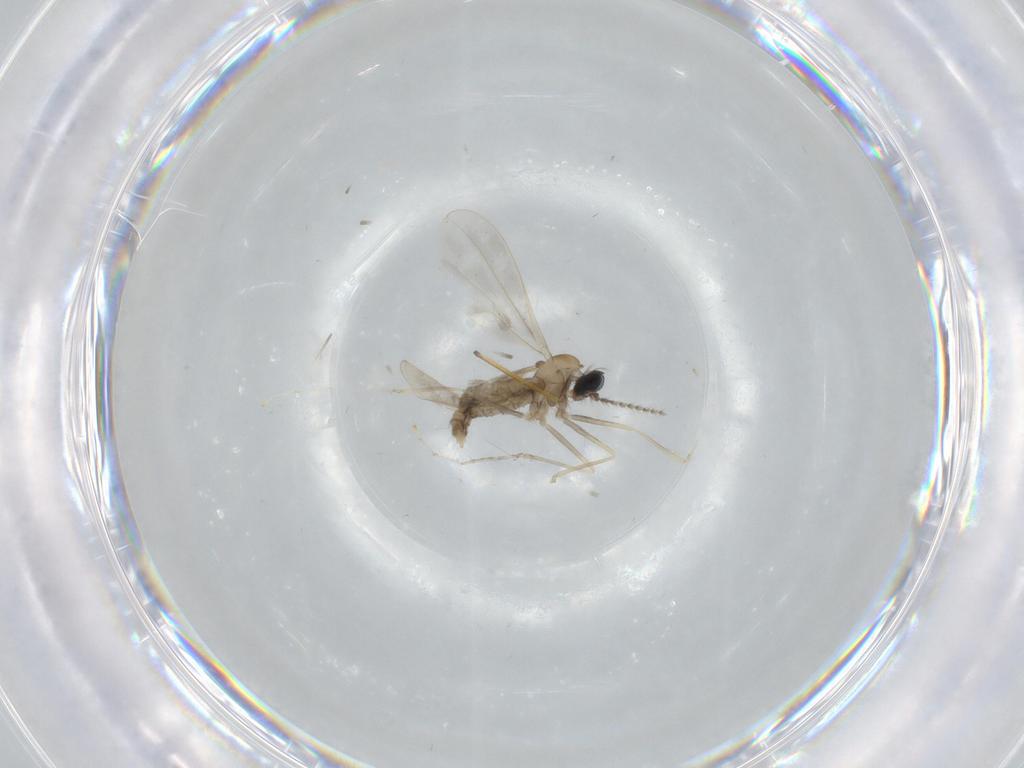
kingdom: Animalia
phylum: Arthropoda
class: Insecta
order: Diptera
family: Cecidomyiidae
